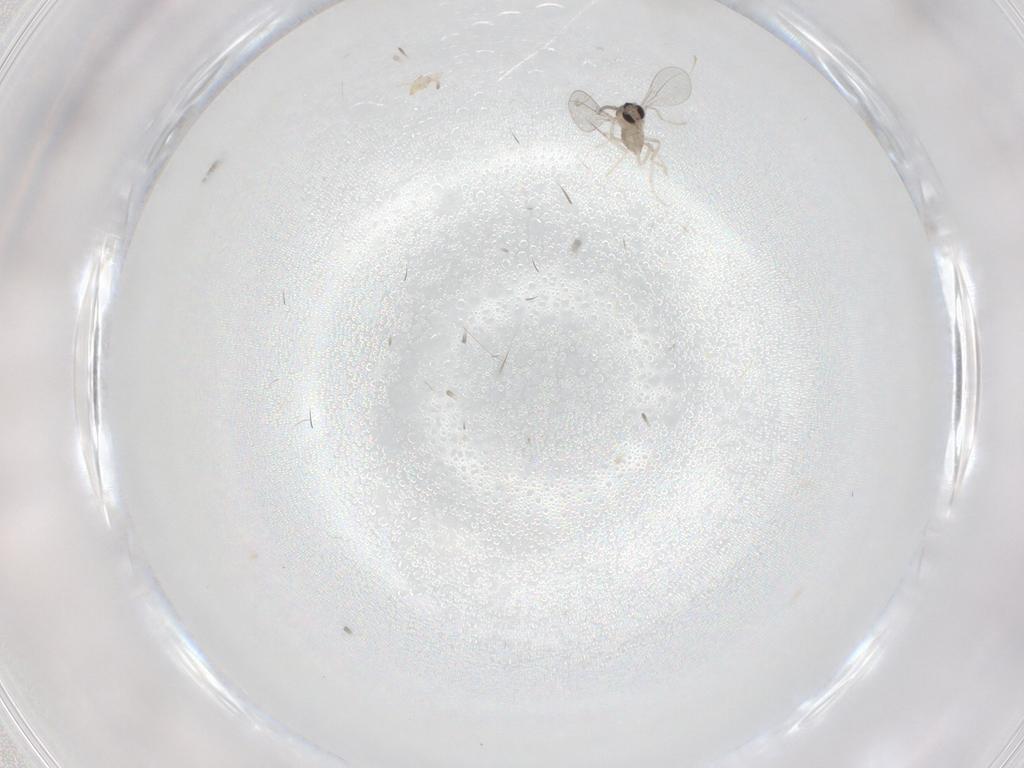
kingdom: Animalia
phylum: Arthropoda
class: Insecta
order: Diptera
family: Cecidomyiidae
